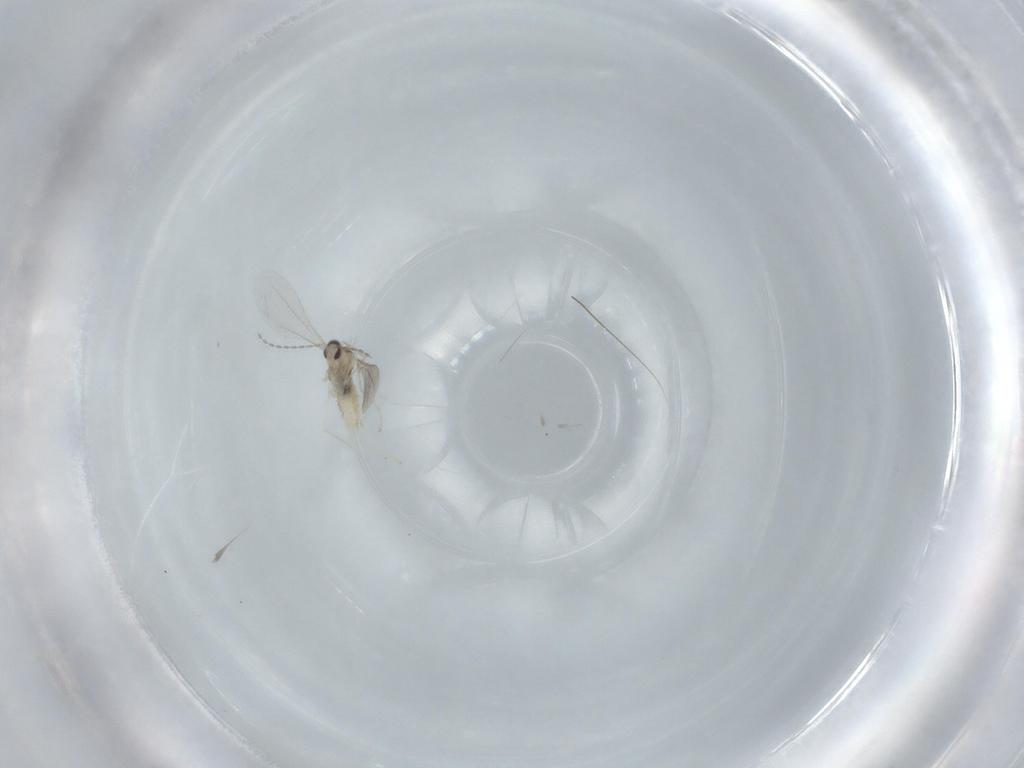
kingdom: Animalia
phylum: Arthropoda
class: Insecta
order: Diptera
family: Cecidomyiidae
